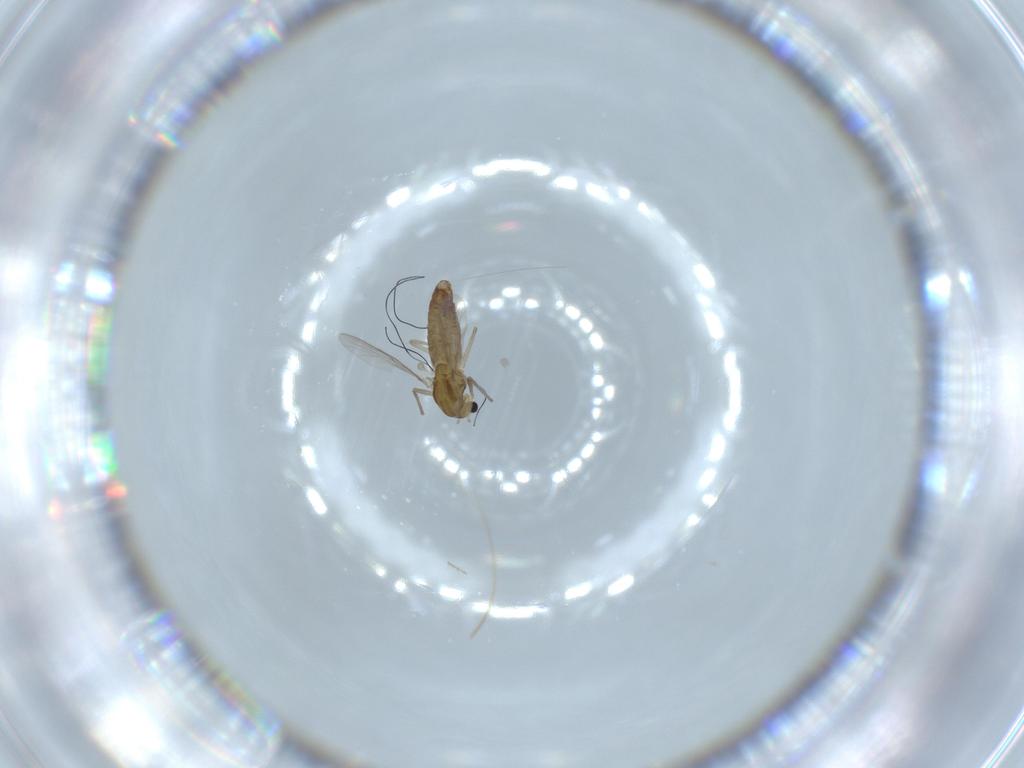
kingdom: Animalia
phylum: Arthropoda
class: Insecta
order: Diptera
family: Chironomidae
